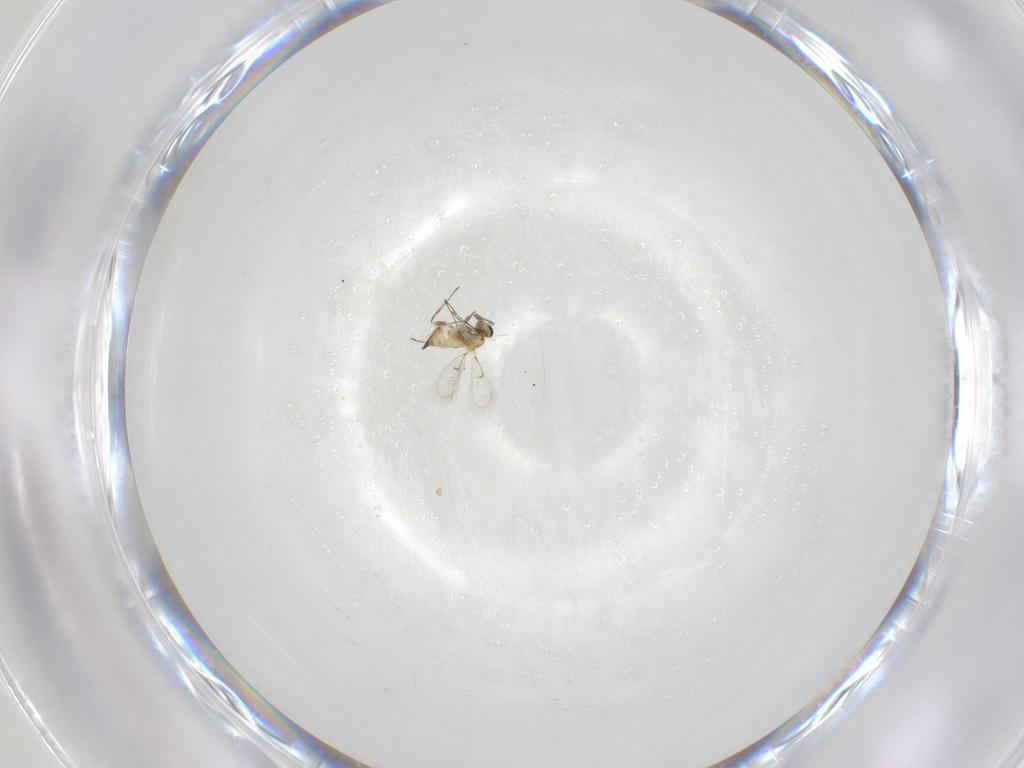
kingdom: Animalia
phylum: Arthropoda
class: Insecta
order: Hymenoptera
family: Trichogrammatidae
